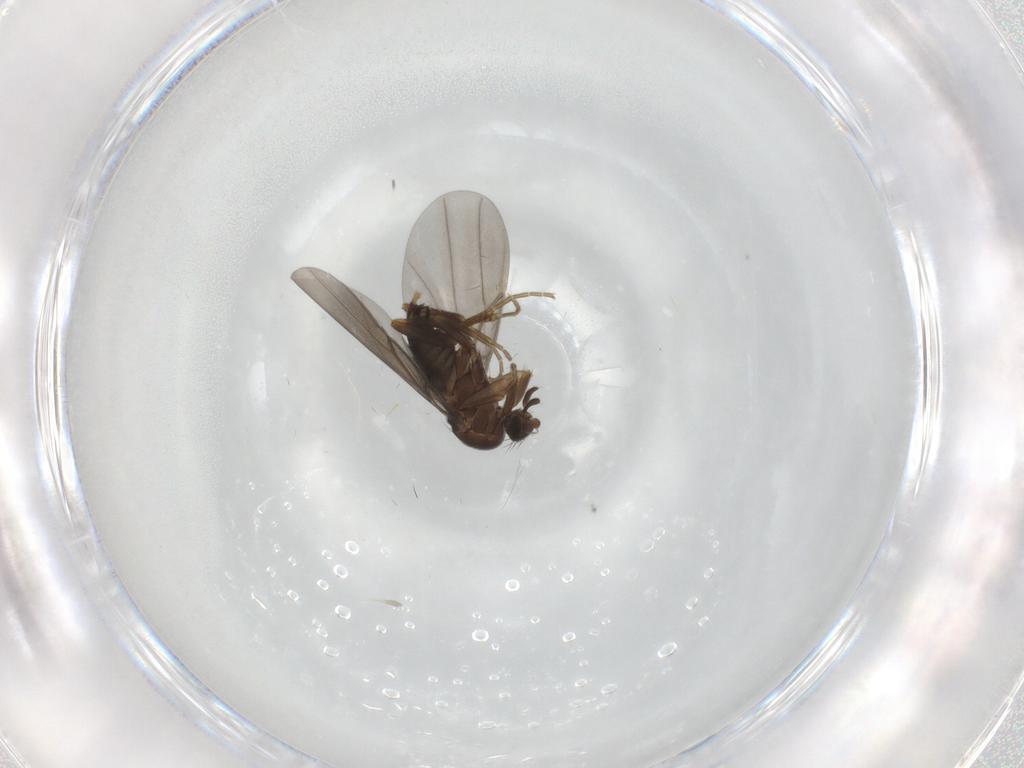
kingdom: Animalia
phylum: Arthropoda
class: Insecta
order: Diptera
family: Phoridae
